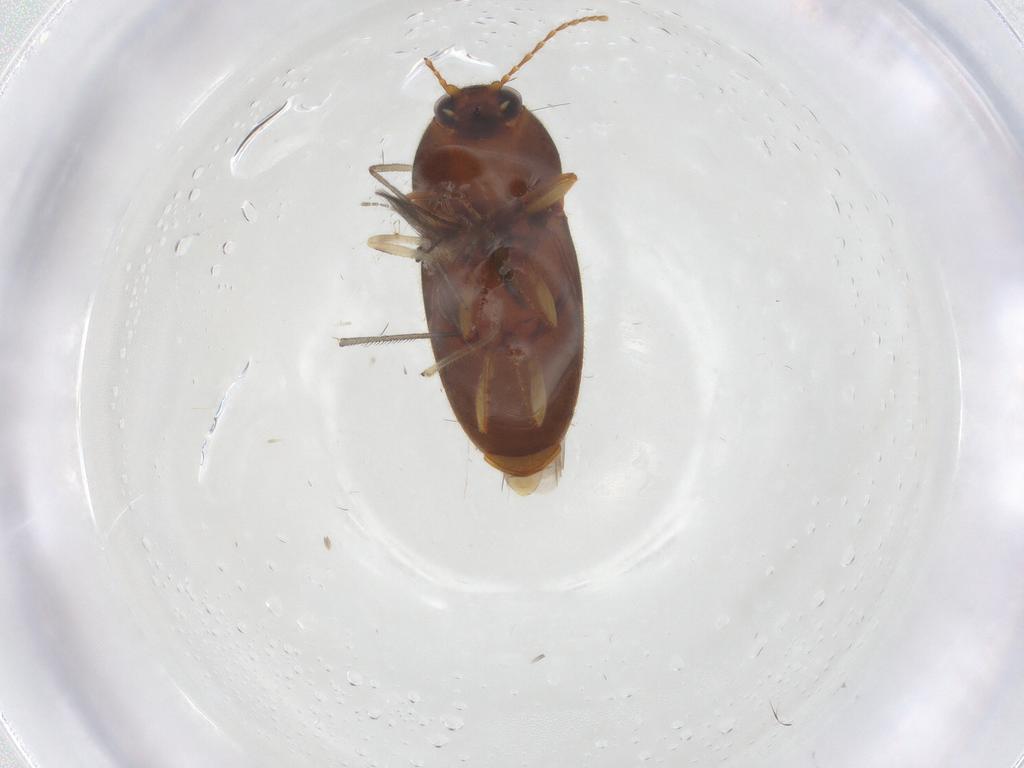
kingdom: Animalia
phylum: Arthropoda
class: Insecta
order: Coleoptera
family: Elateridae
